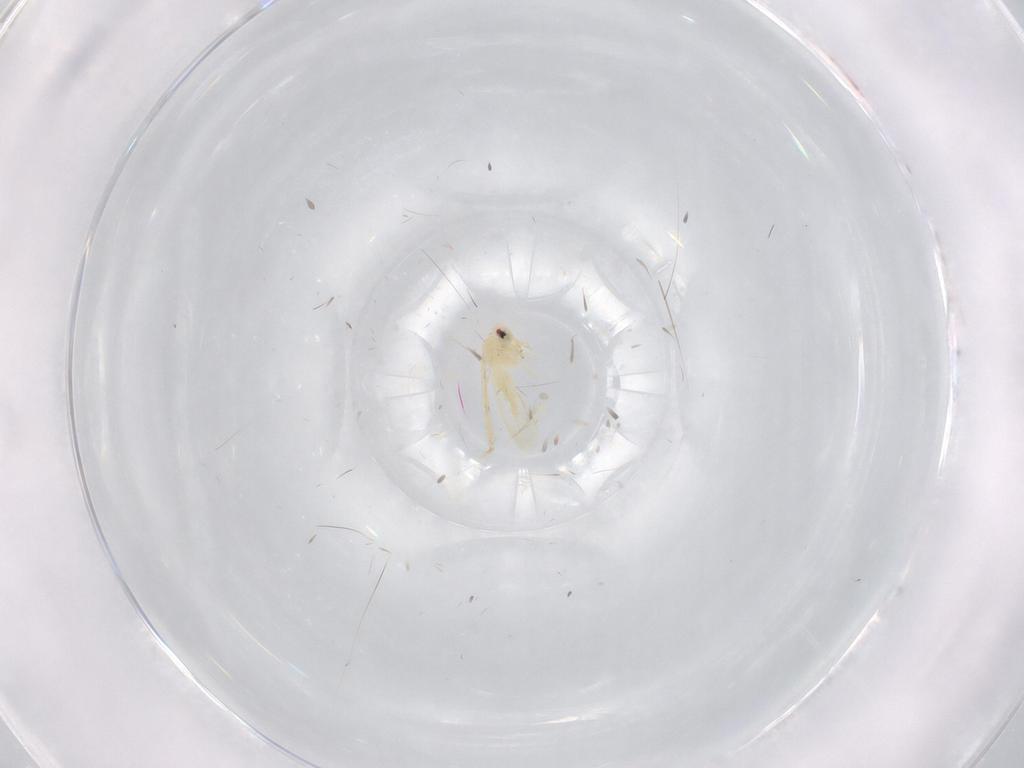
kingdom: Animalia
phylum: Arthropoda
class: Insecta
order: Hemiptera
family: Aleyrodidae
